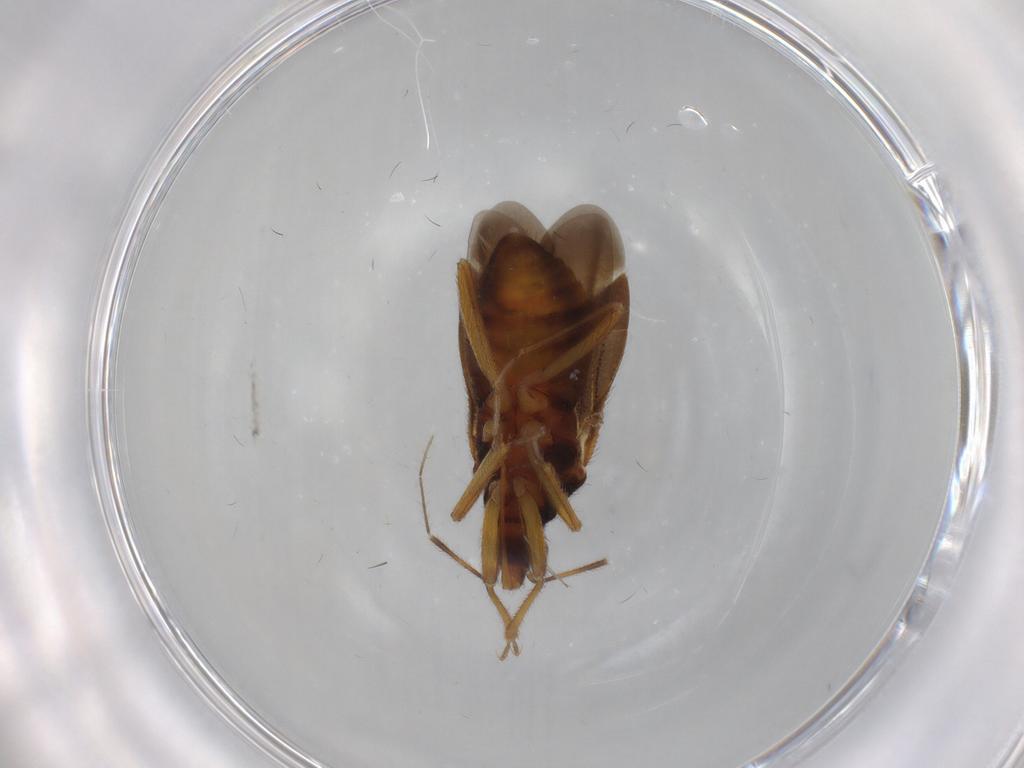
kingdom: Animalia
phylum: Arthropoda
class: Insecta
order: Hemiptera
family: Anthocoridae
